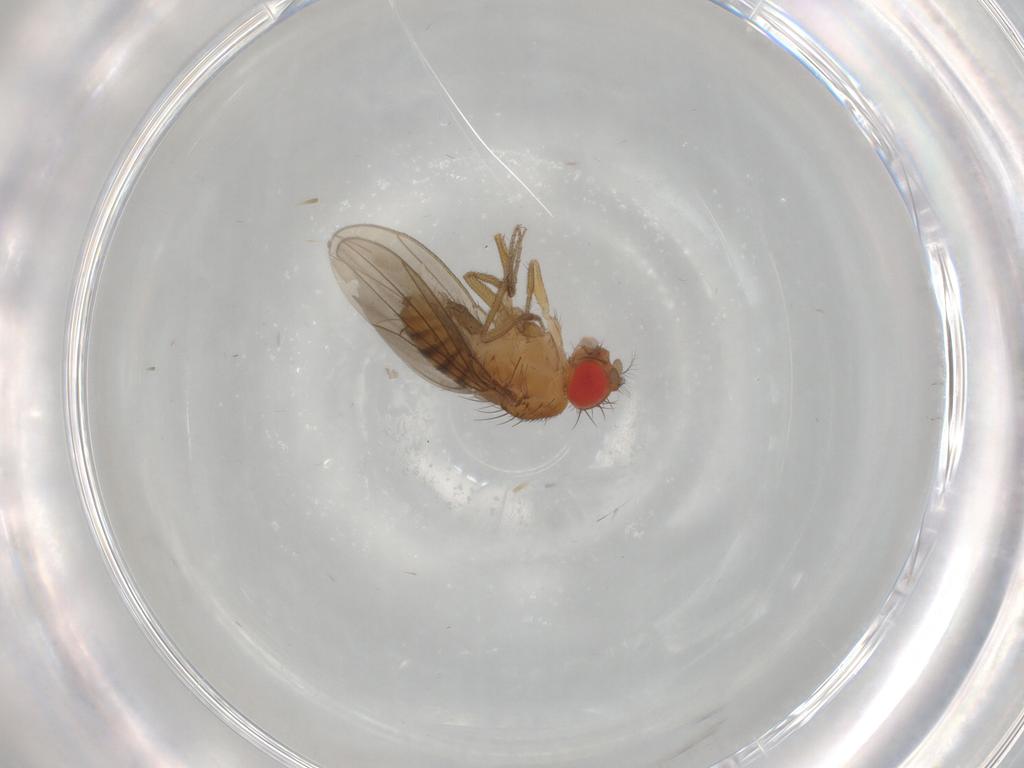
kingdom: Animalia
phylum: Arthropoda
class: Insecta
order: Diptera
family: Drosophilidae
